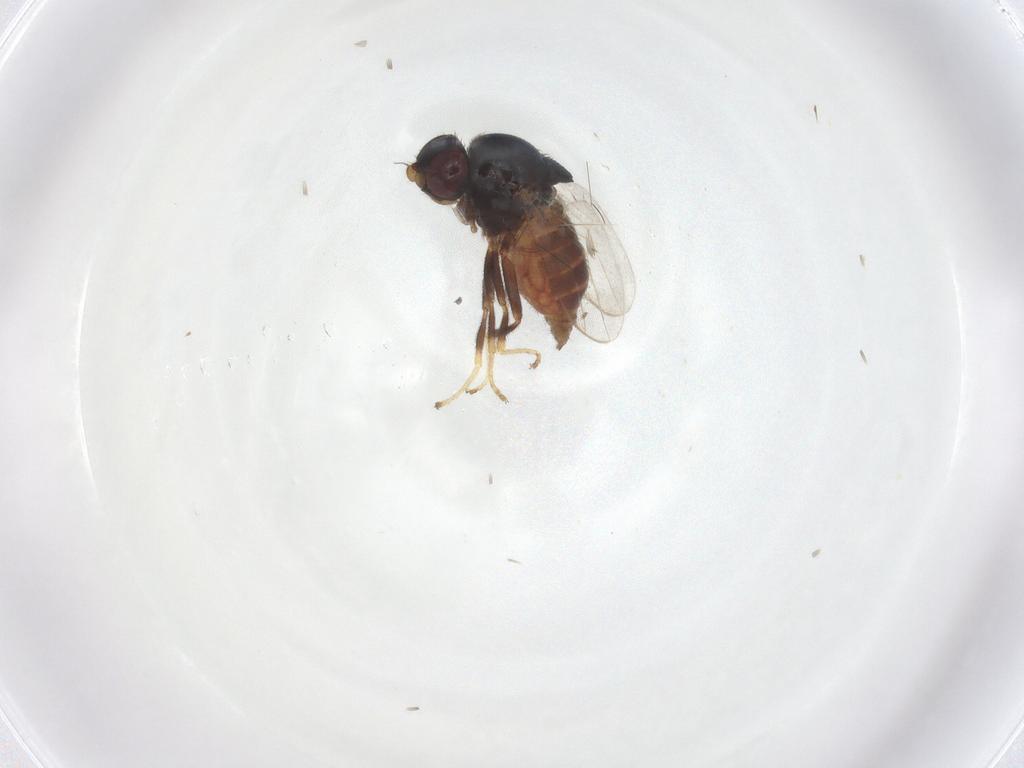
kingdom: Animalia
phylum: Arthropoda
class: Insecta
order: Diptera
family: Chloropidae
